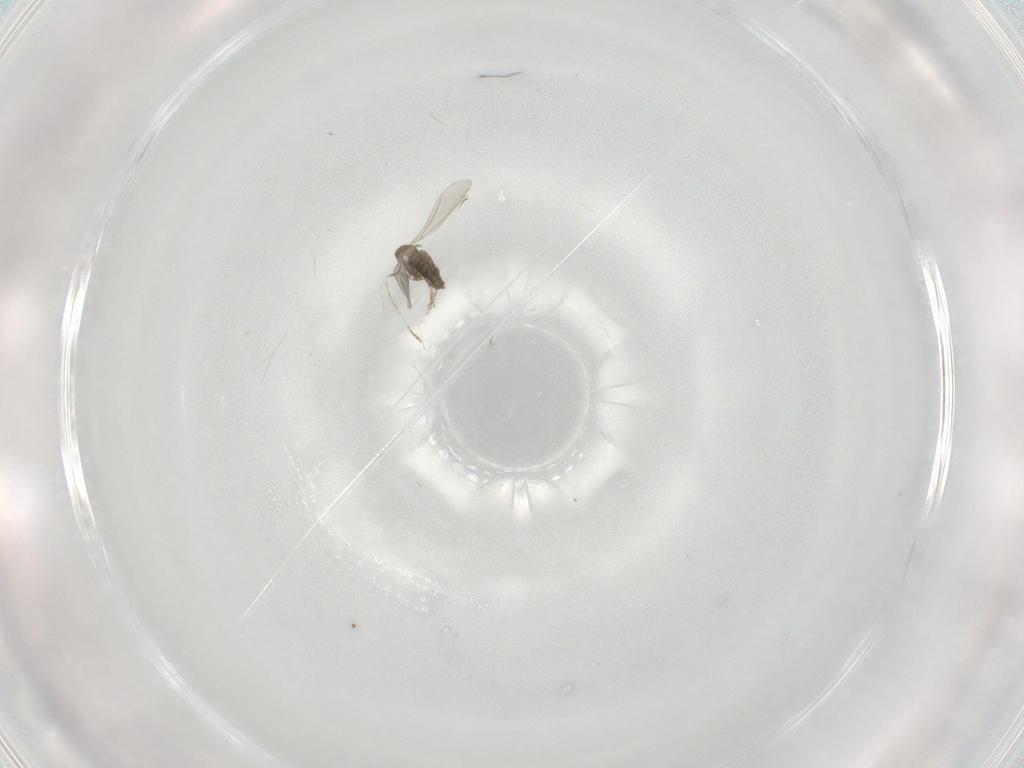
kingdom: Animalia
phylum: Arthropoda
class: Insecta
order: Diptera
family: Cecidomyiidae
